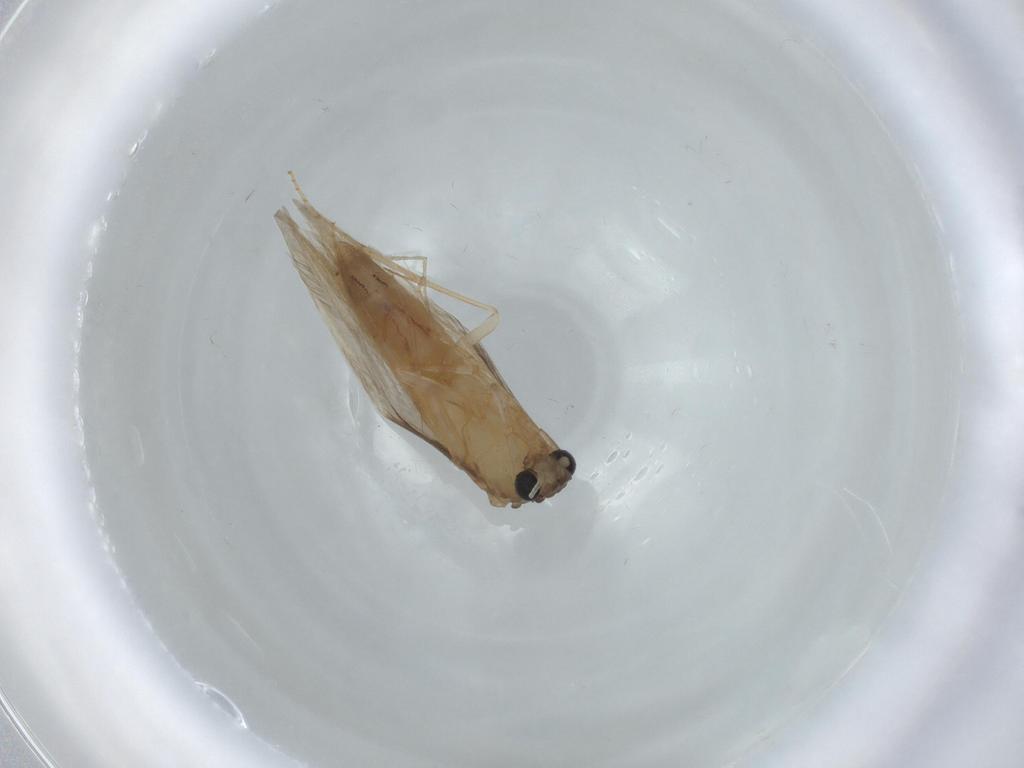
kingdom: Animalia
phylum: Arthropoda
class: Insecta
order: Trichoptera
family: Hydroptilidae
